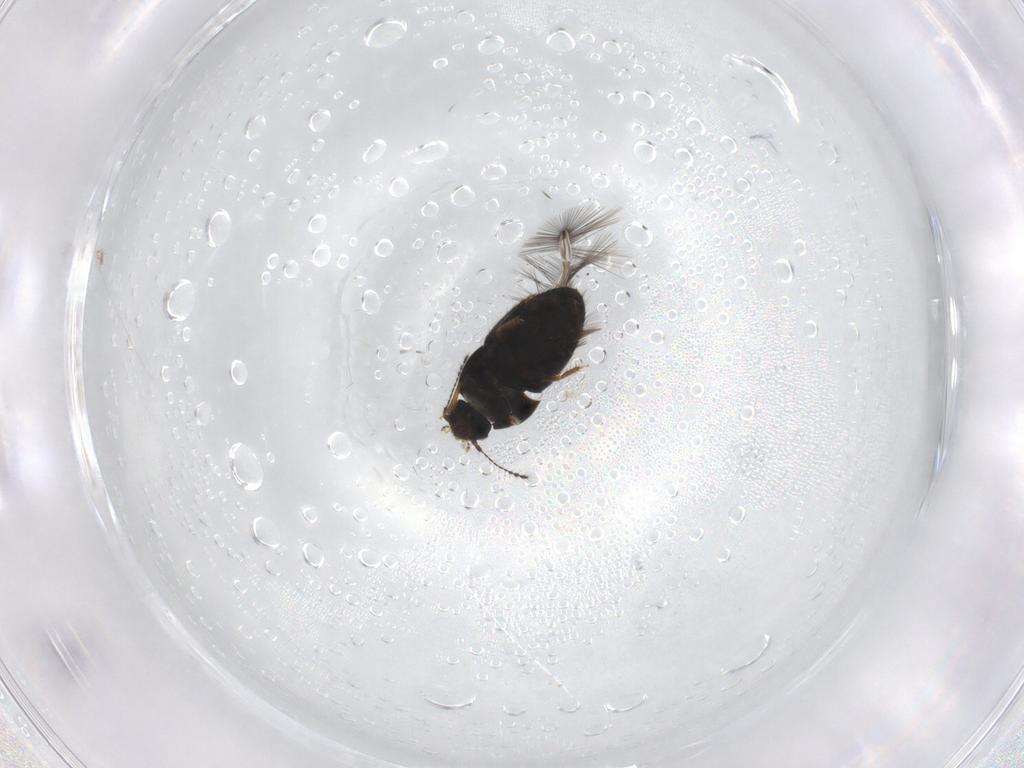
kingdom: Animalia
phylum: Arthropoda
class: Insecta
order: Coleoptera
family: Ptiliidae
